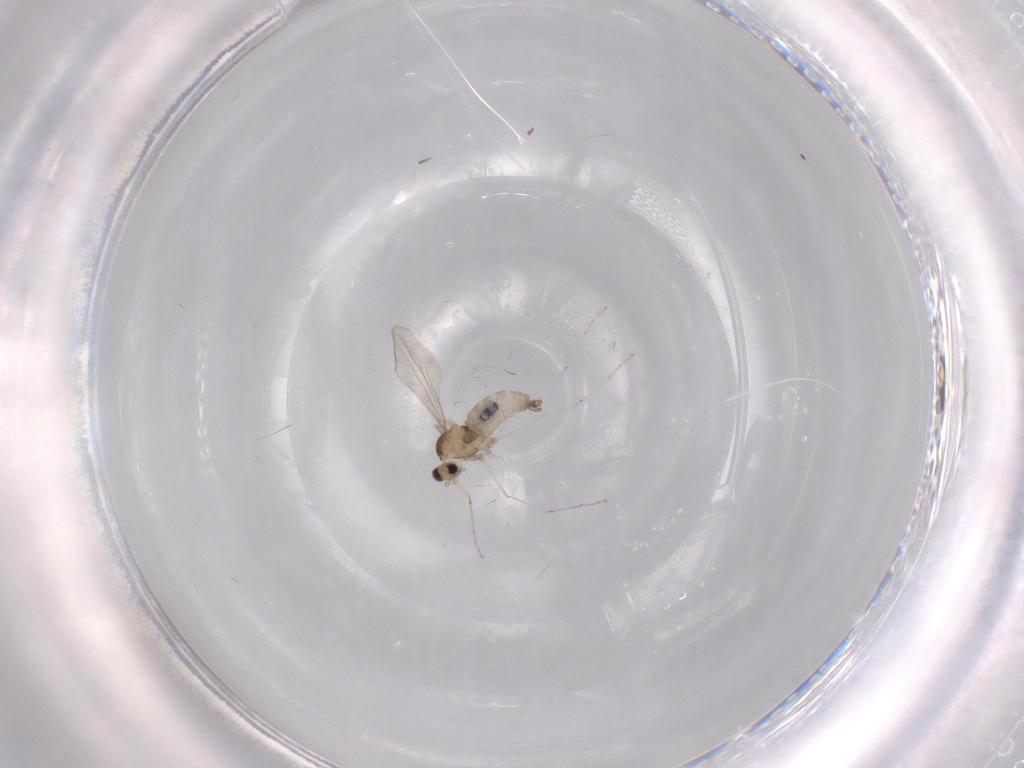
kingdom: Animalia
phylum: Arthropoda
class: Insecta
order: Diptera
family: Cecidomyiidae
